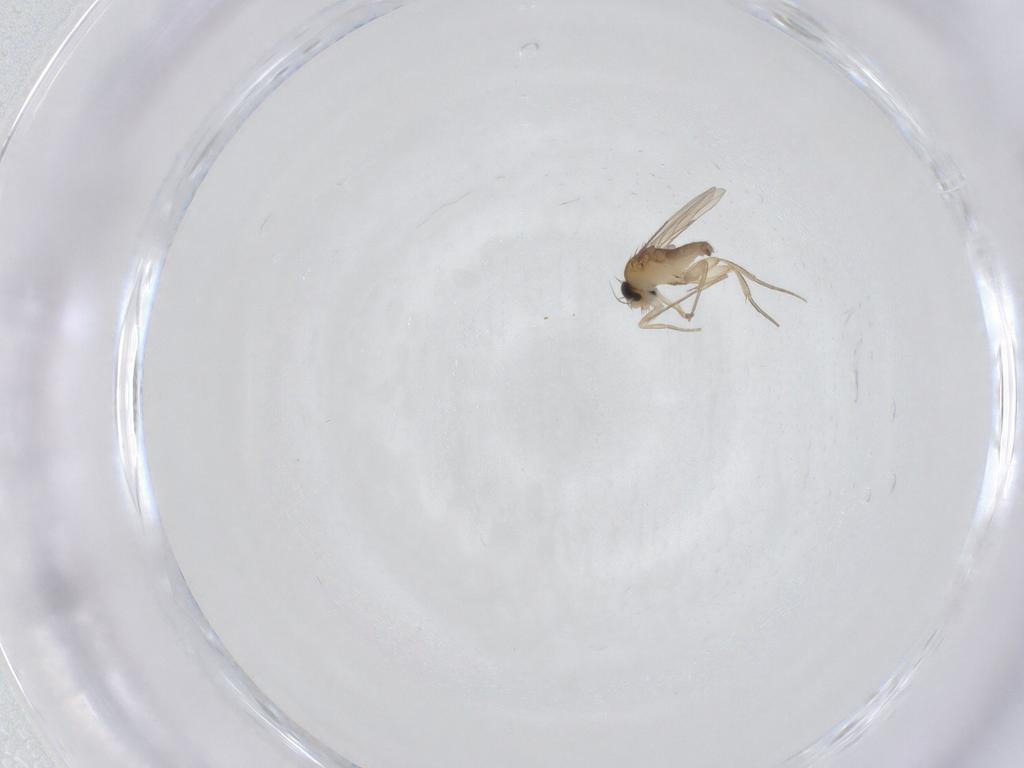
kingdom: Animalia
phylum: Arthropoda
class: Insecta
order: Diptera
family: Phoridae
